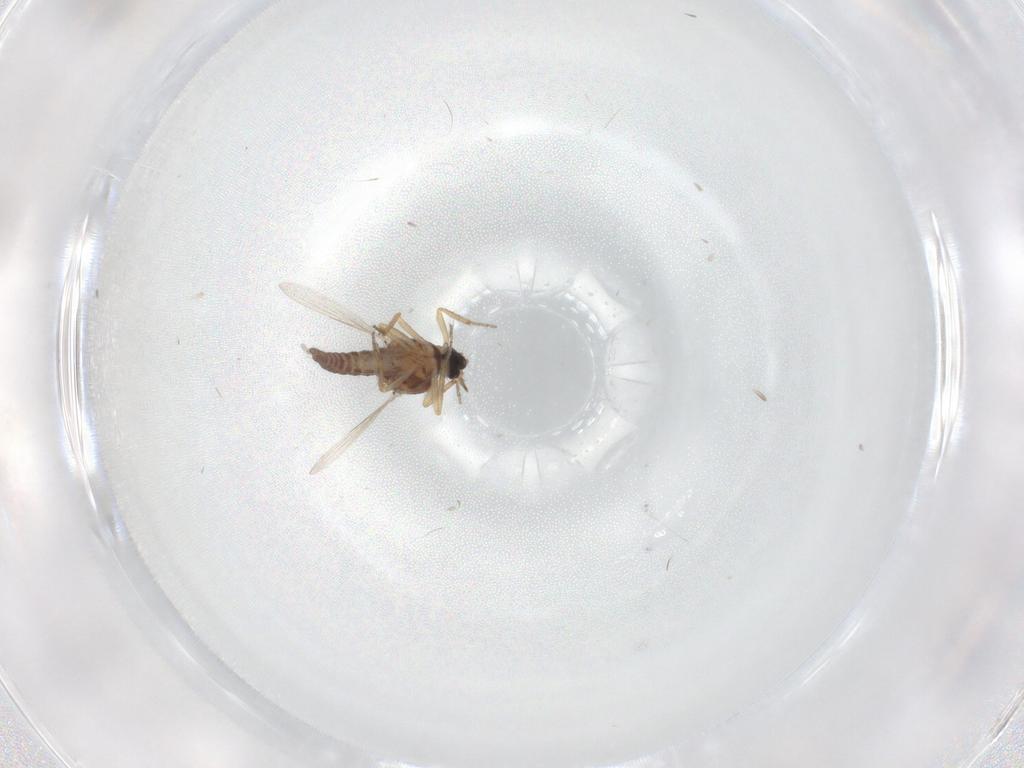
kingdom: Animalia
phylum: Arthropoda
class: Insecta
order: Diptera
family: Ceratopogonidae
